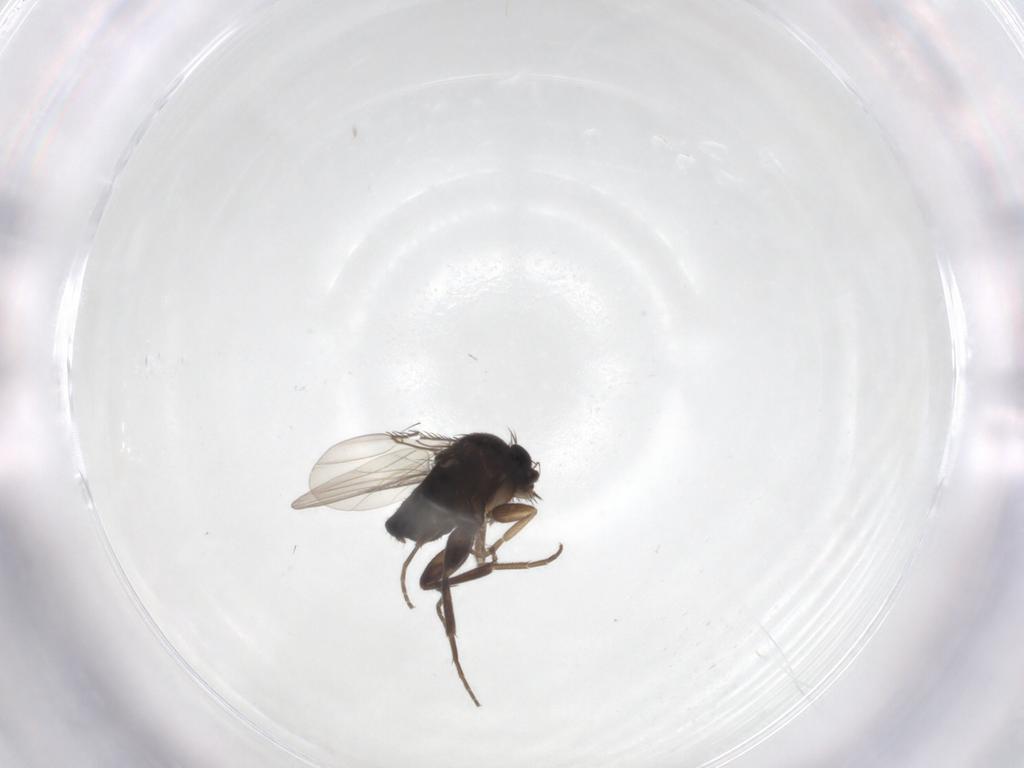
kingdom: Animalia
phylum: Arthropoda
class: Insecta
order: Diptera
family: Phoridae
